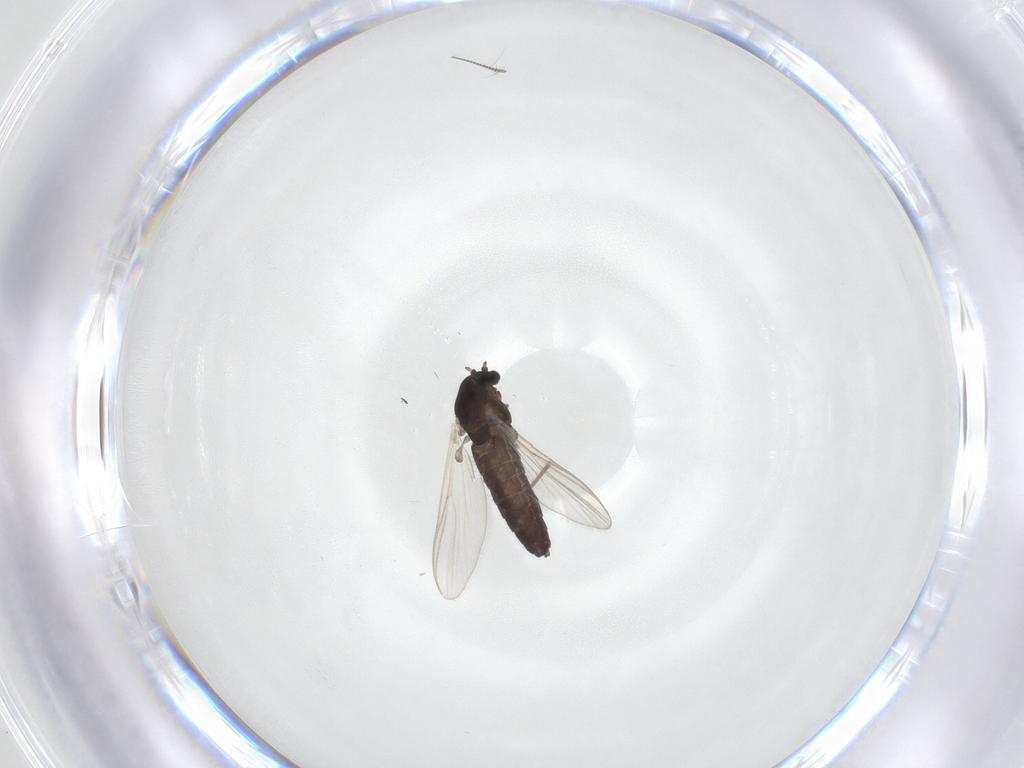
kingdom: Animalia
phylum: Arthropoda
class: Insecta
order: Diptera
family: Chironomidae
